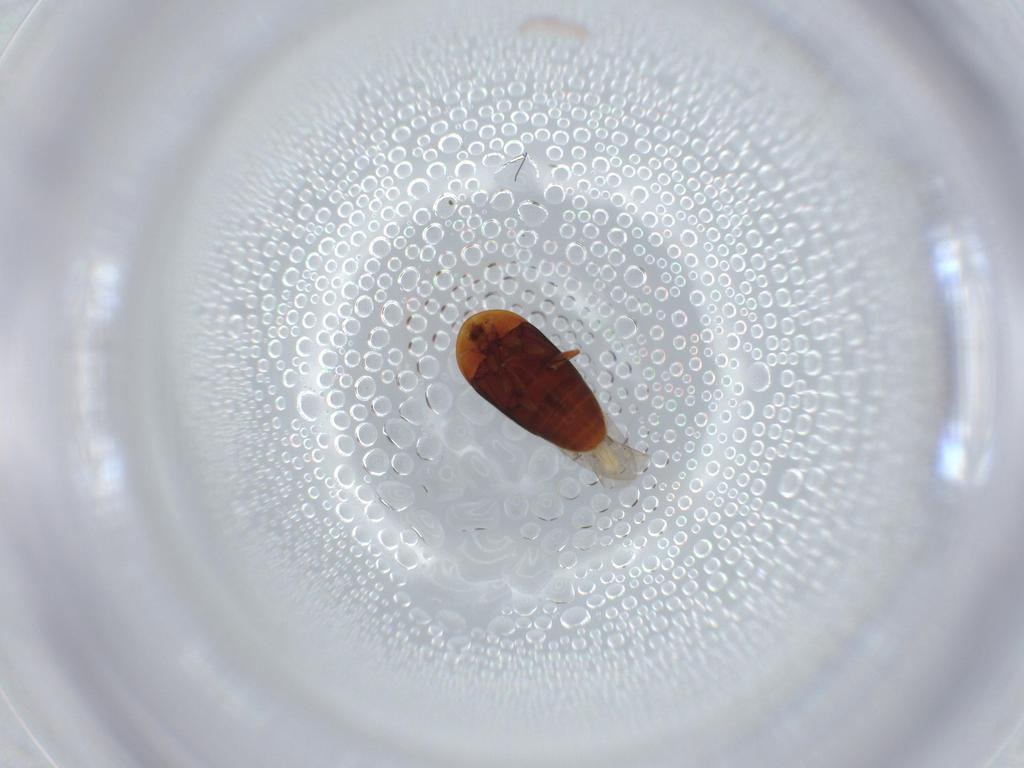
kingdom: Animalia
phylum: Arthropoda
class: Insecta
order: Coleoptera
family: Corylophidae
